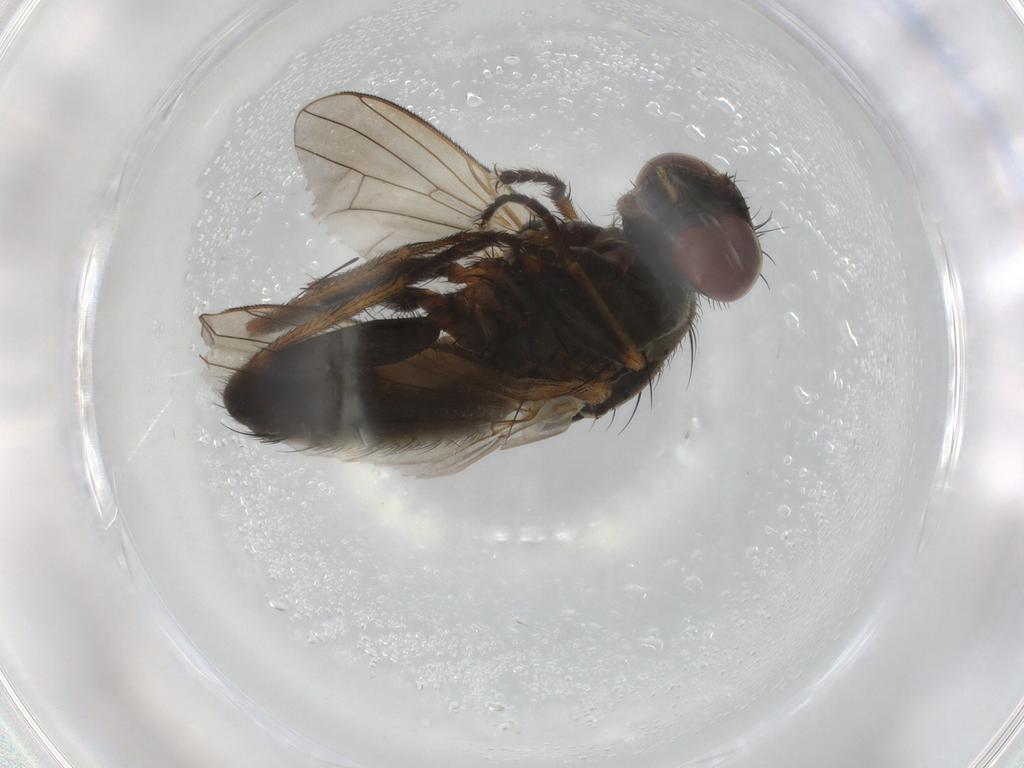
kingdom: Animalia
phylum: Arthropoda
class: Insecta
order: Diptera
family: Muscidae
